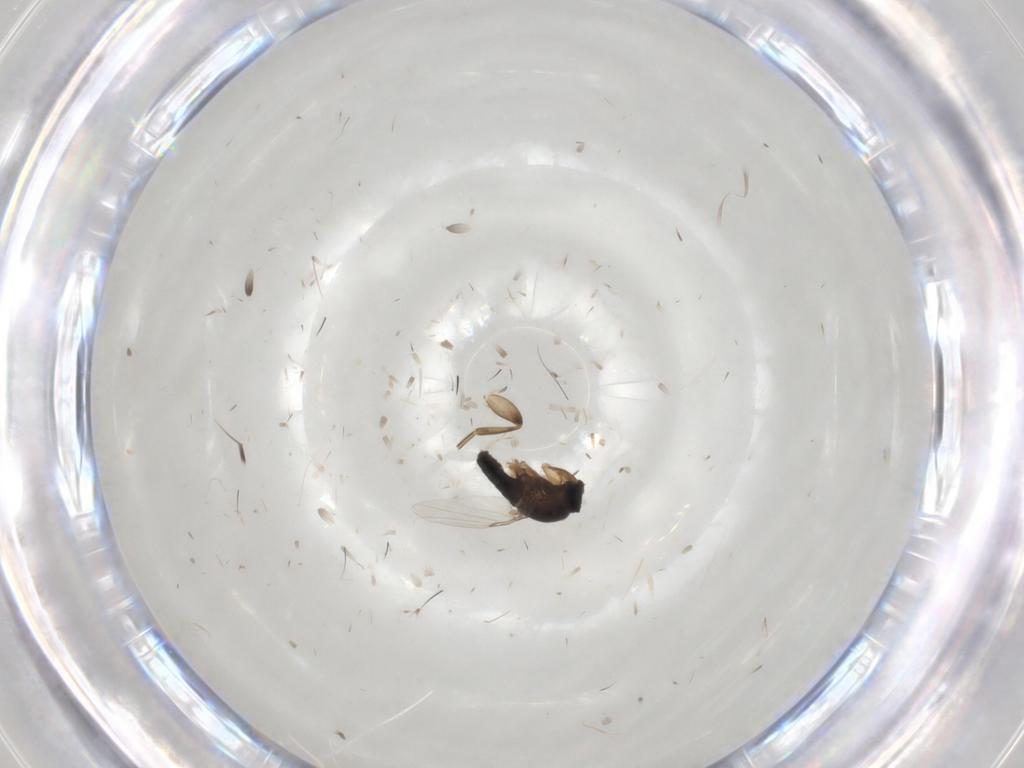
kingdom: Animalia
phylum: Arthropoda
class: Insecta
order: Diptera
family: Phoridae
